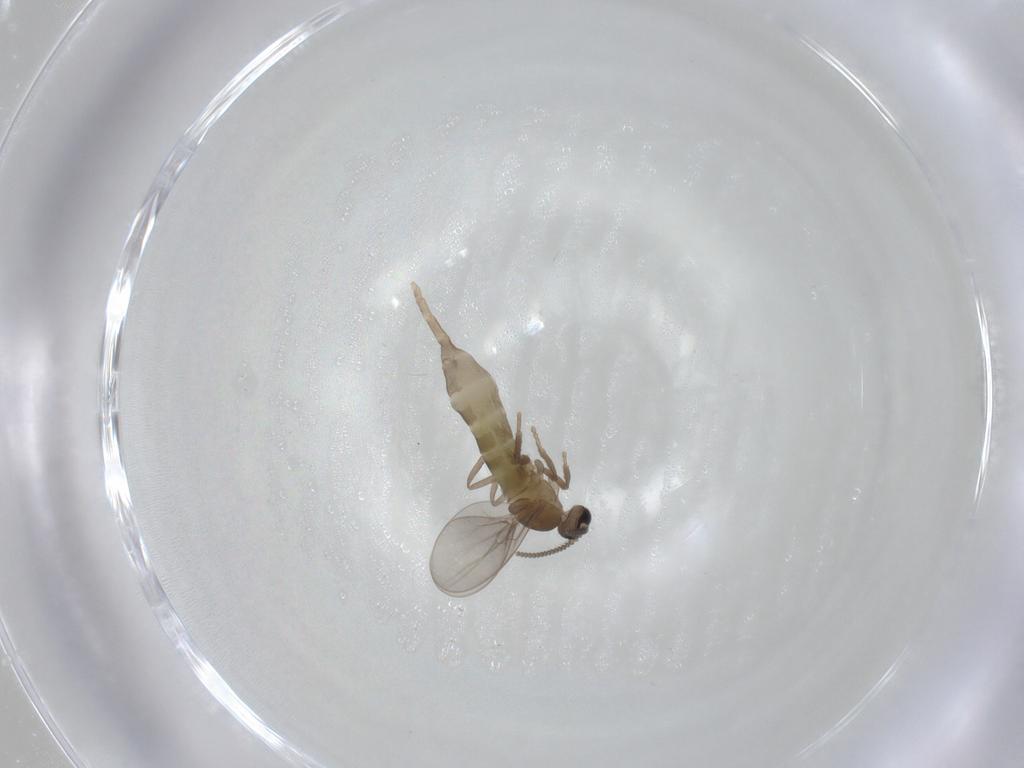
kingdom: Animalia
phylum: Arthropoda
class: Insecta
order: Diptera
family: Cecidomyiidae
